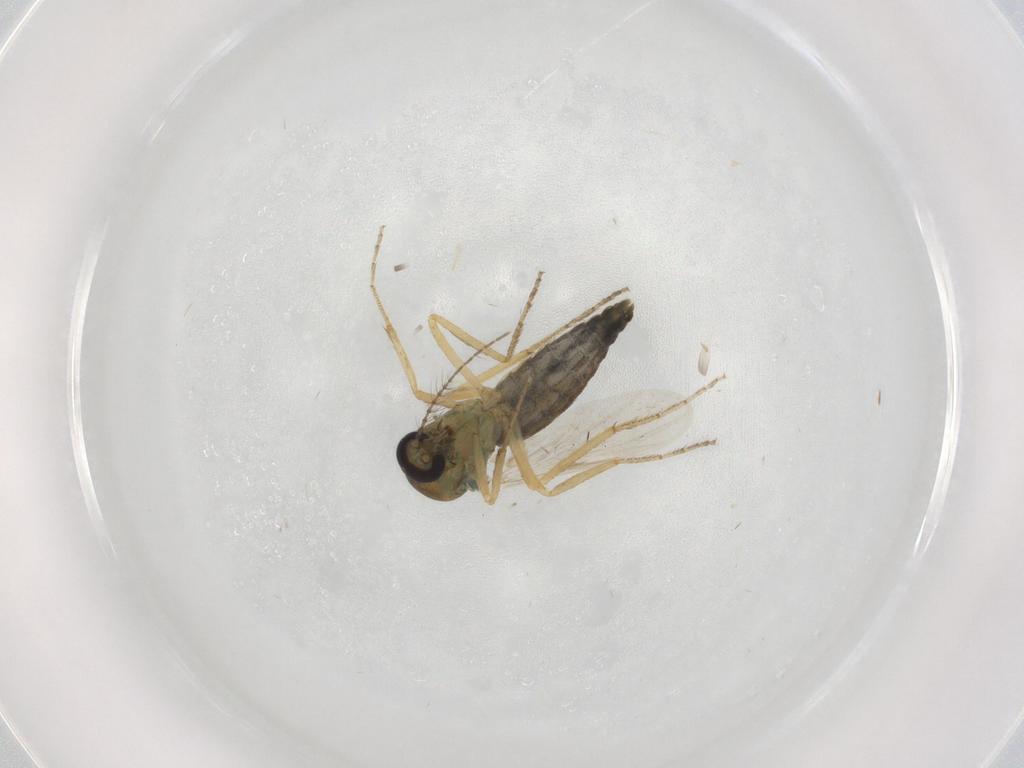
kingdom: Animalia
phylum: Arthropoda
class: Insecta
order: Diptera
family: Ceratopogonidae
